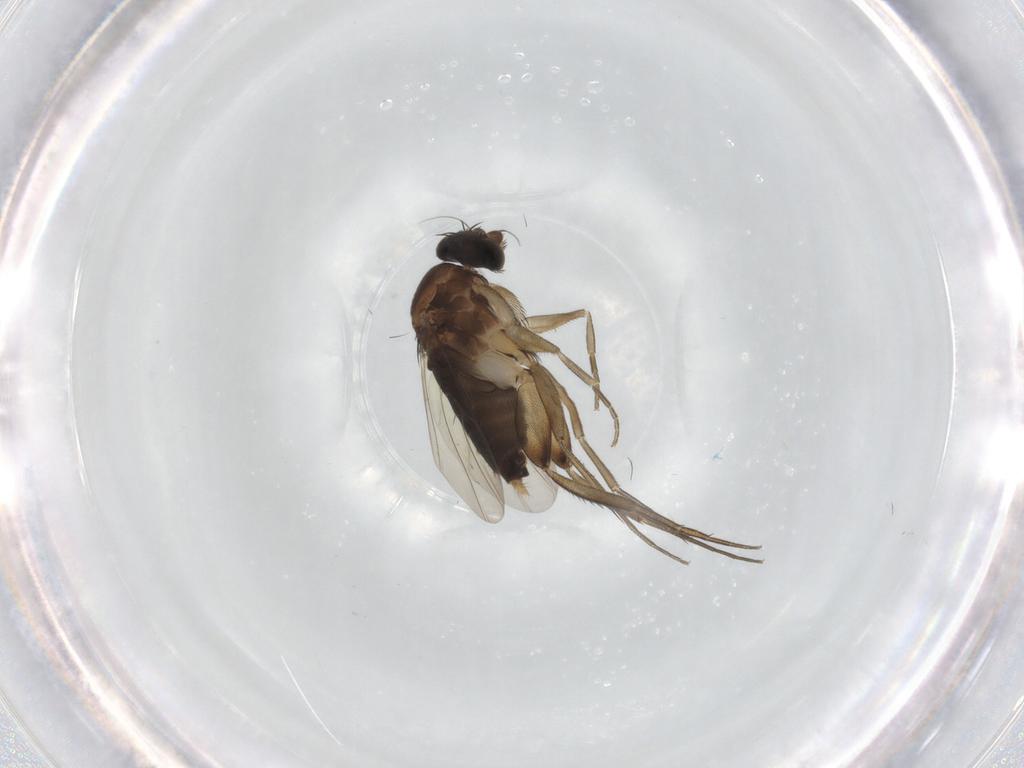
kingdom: Animalia
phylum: Arthropoda
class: Insecta
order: Diptera
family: Phoridae
